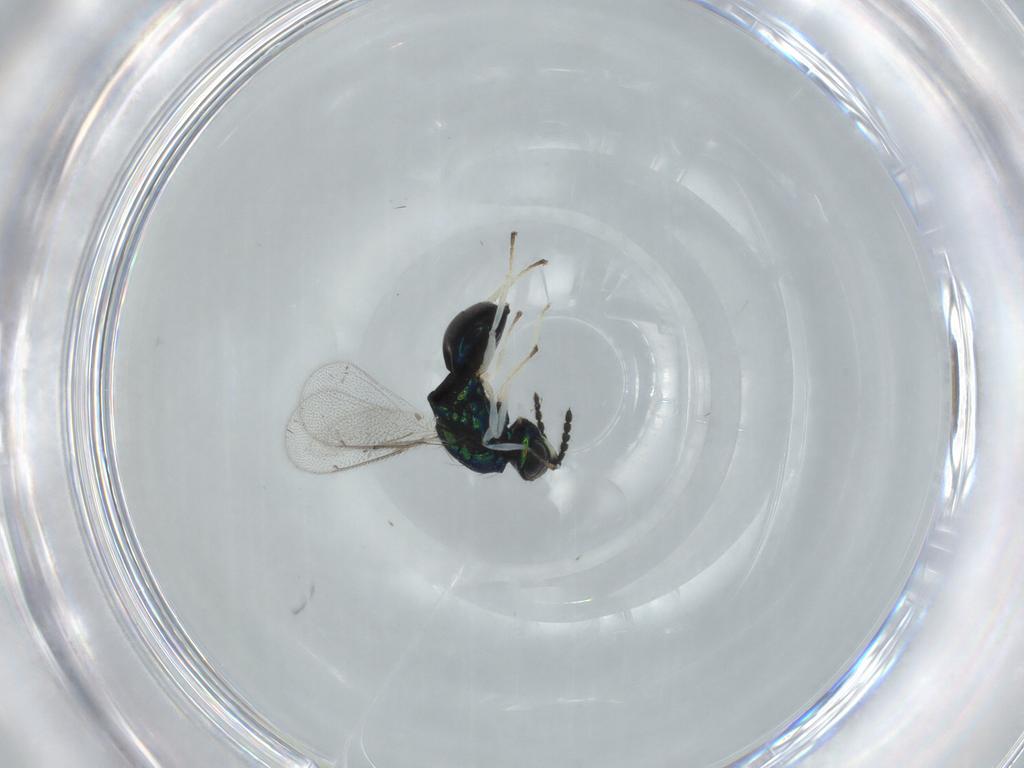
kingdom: Animalia
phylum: Arthropoda
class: Insecta
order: Hymenoptera
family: Eulophidae
